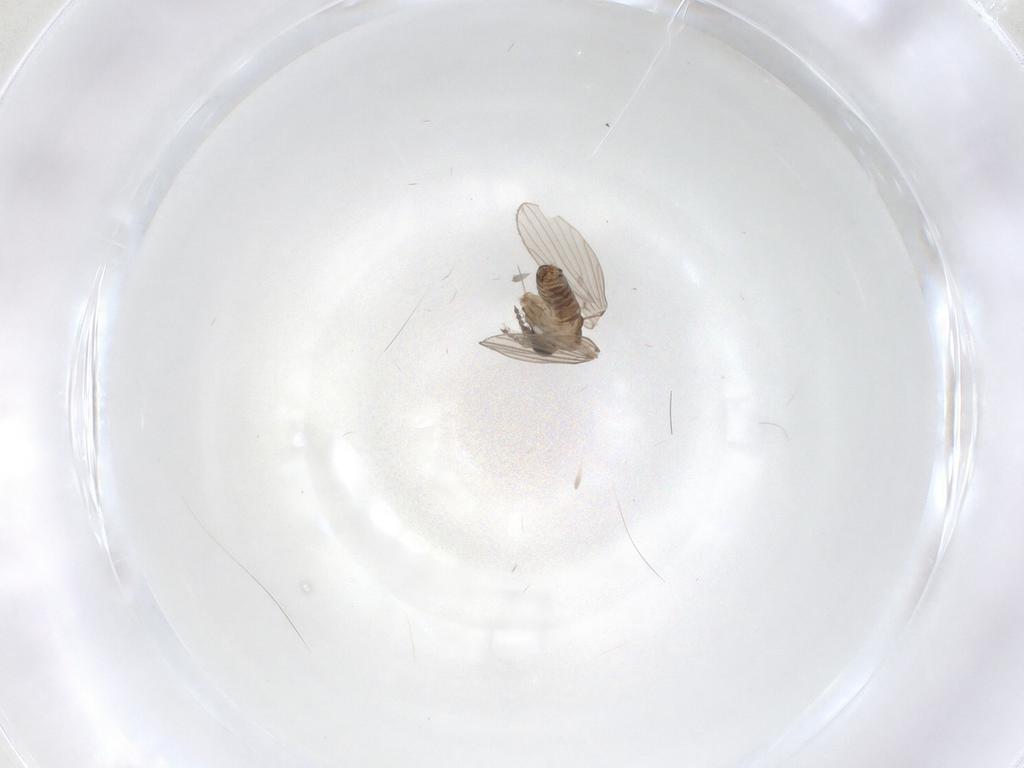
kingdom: Animalia
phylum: Arthropoda
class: Insecta
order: Diptera
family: Psychodidae
